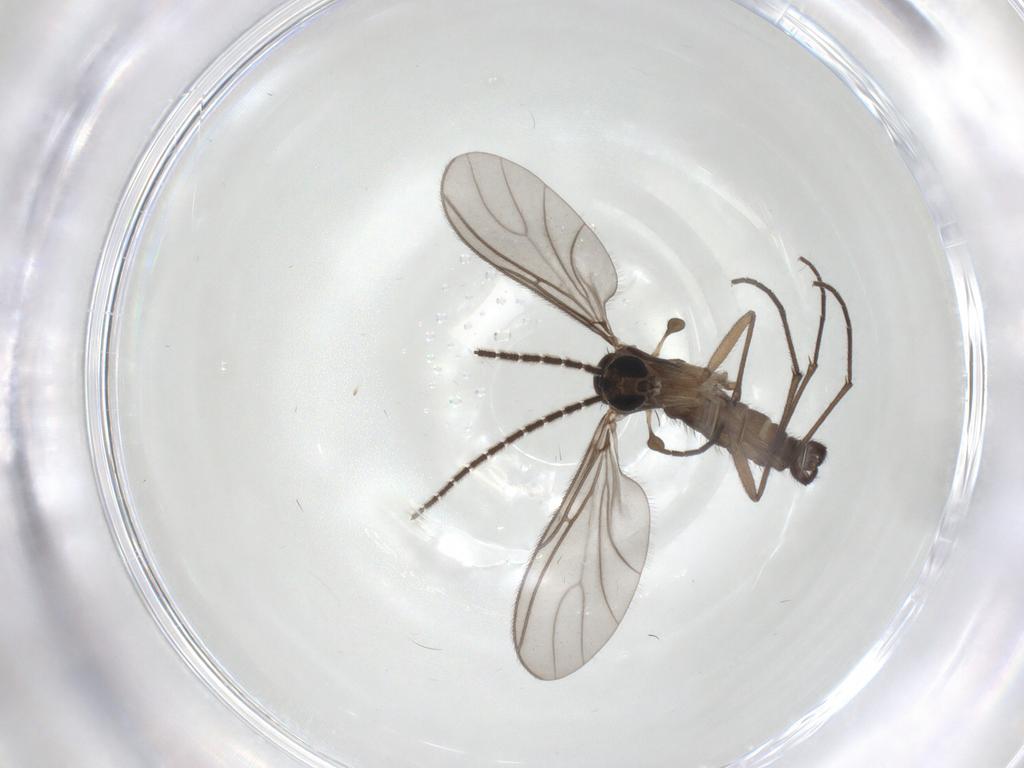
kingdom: Animalia
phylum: Arthropoda
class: Insecta
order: Diptera
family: Sciaridae
